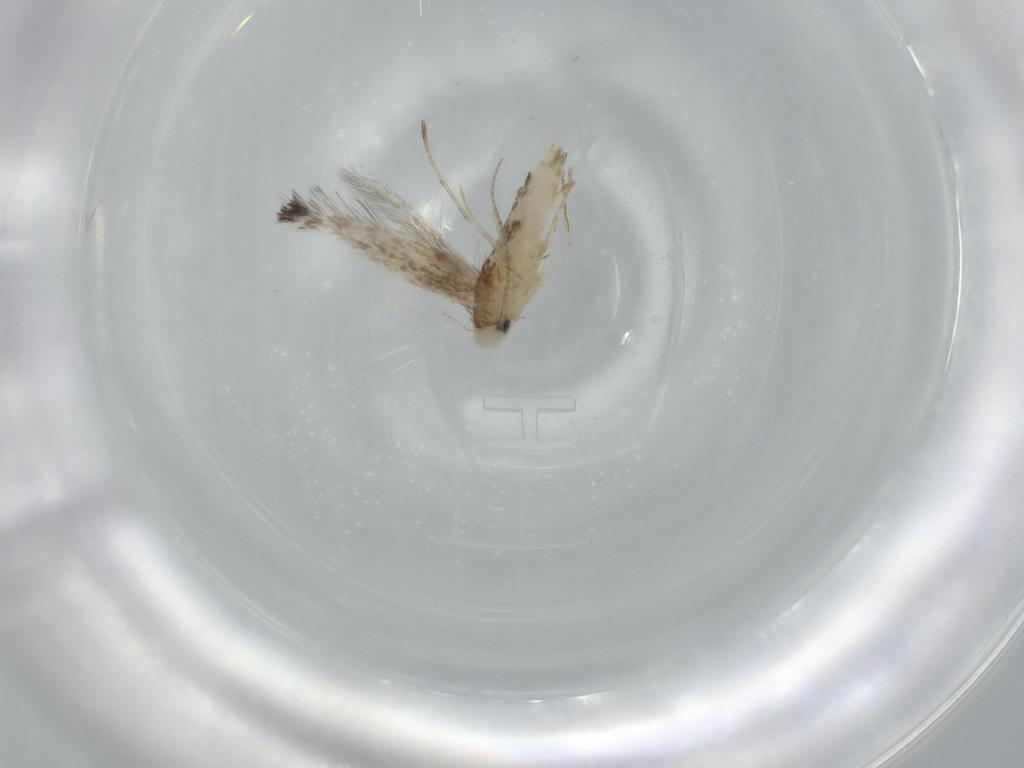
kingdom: Animalia
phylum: Arthropoda
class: Insecta
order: Lepidoptera
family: Gracillariidae
